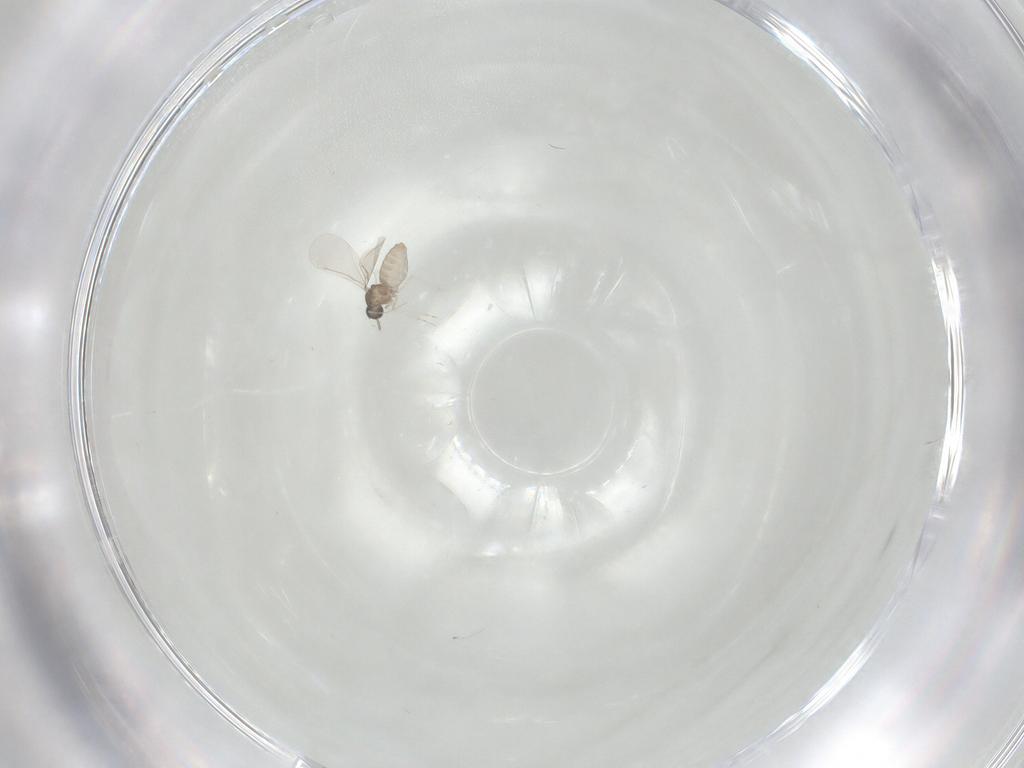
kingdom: Animalia
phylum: Arthropoda
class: Insecta
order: Diptera
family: Cecidomyiidae
